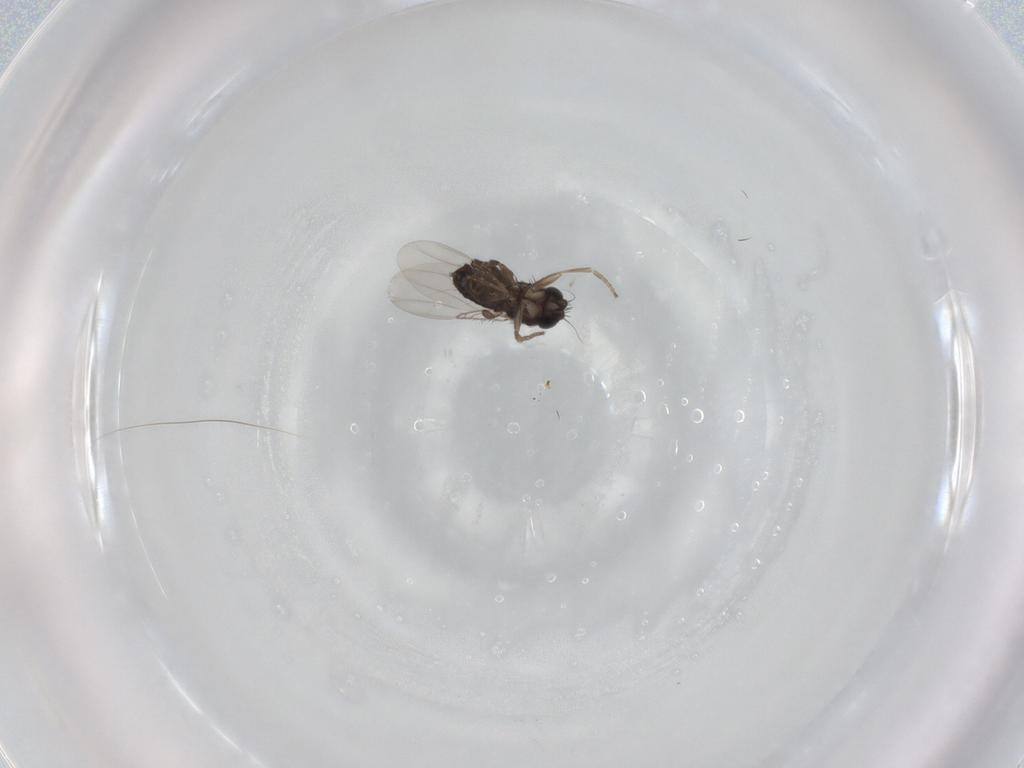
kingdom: Animalia
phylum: Arthropoda
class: Insecta
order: Diptera
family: Phoridae
